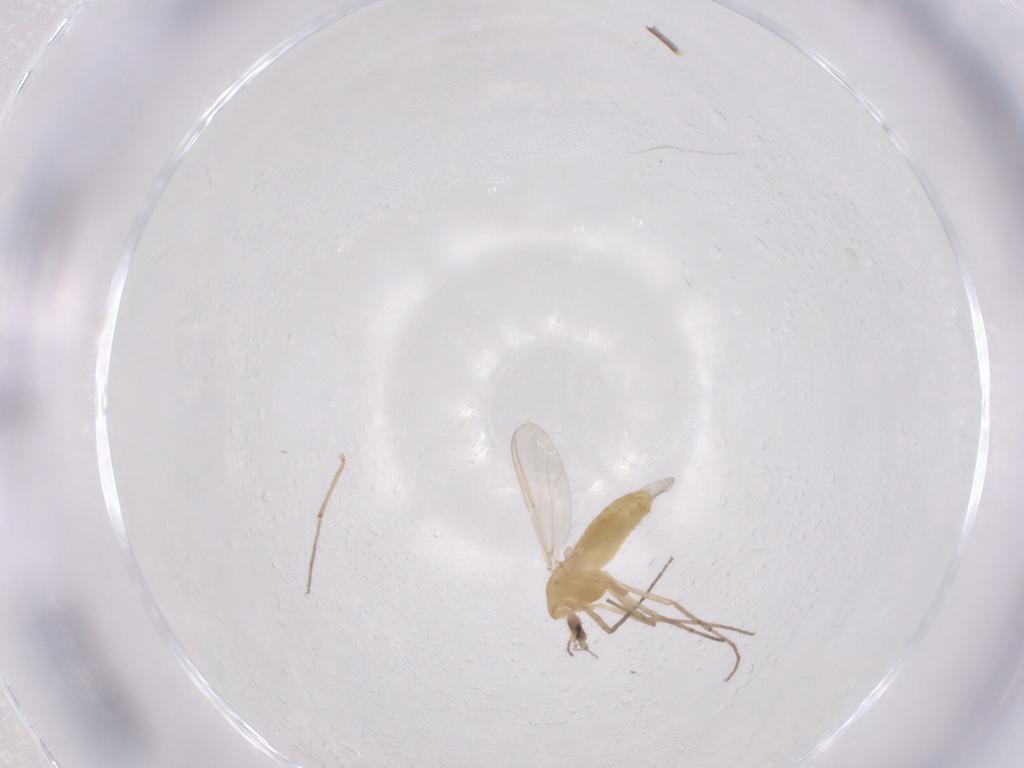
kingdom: Animalia
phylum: Arthropoda
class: Insecta
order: Diptera
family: Chironomidae
